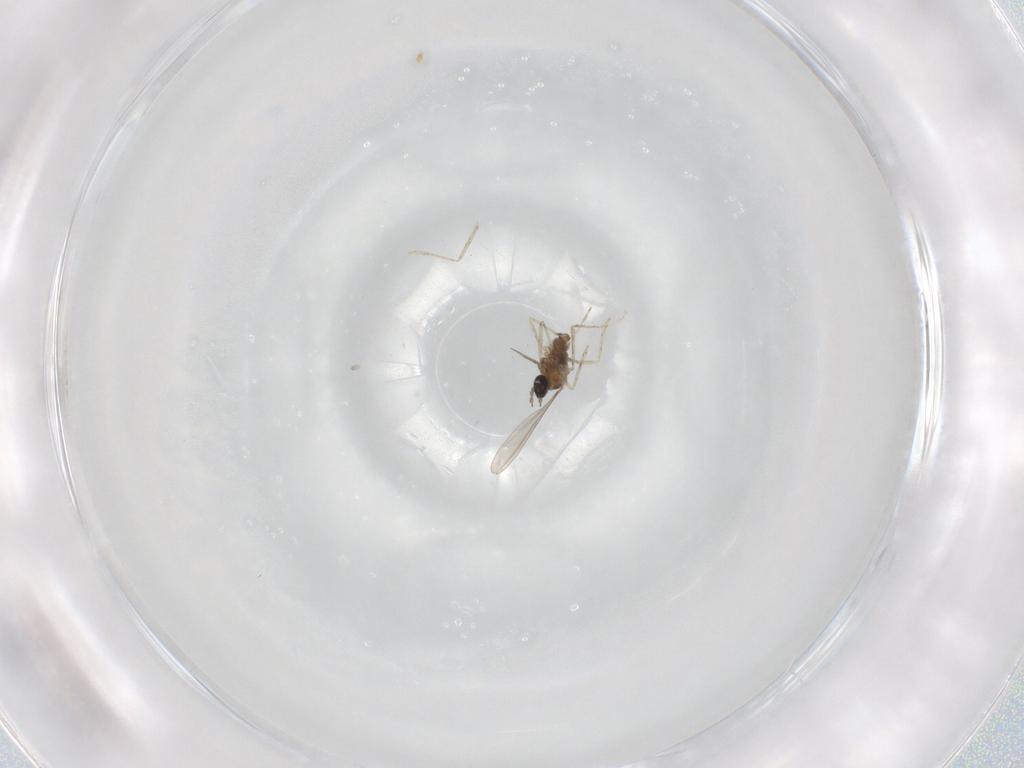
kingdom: Animalia
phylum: Arthropoda
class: Insecta
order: Diptera
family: Cecidomyiidae
